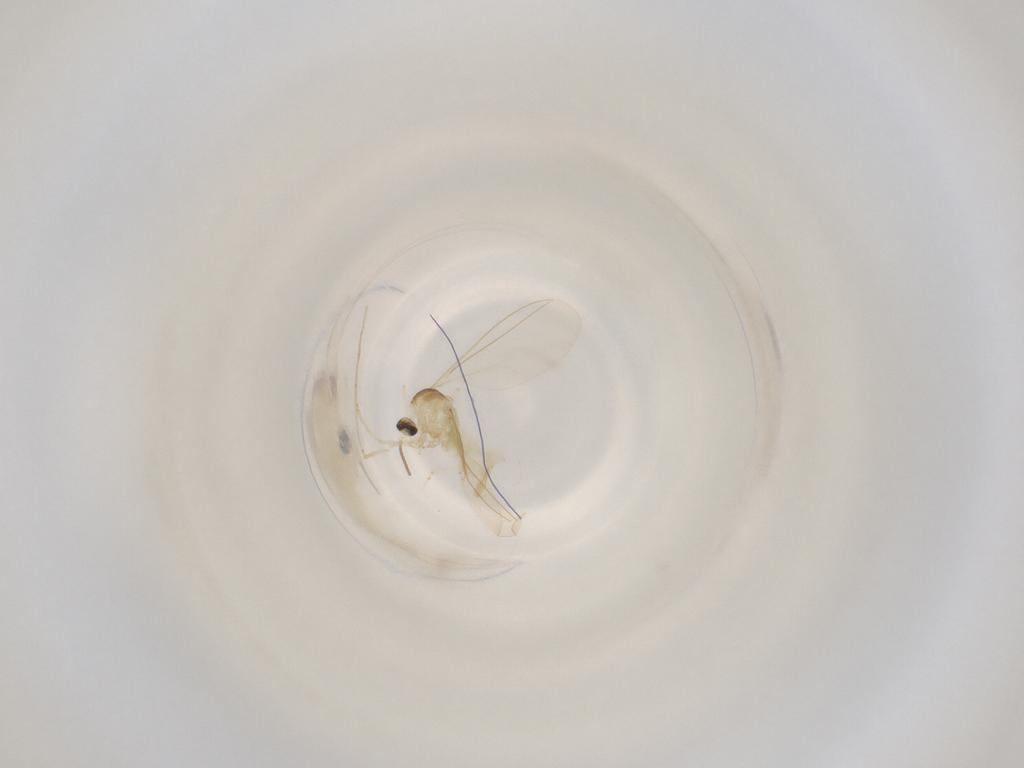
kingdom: Animalia
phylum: Arthropoda
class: Insecta
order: Diptera
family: Cecidomyiidae
